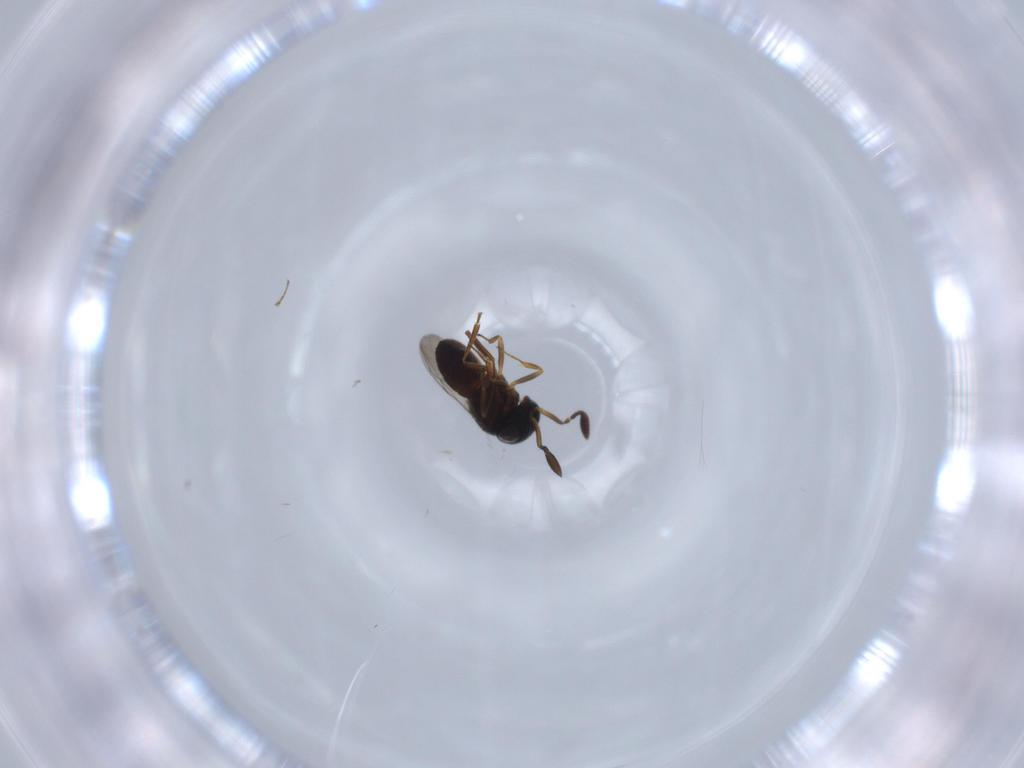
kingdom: Animalia
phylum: Arthropoda
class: Insecta
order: Coleoptera
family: Curculionidae
